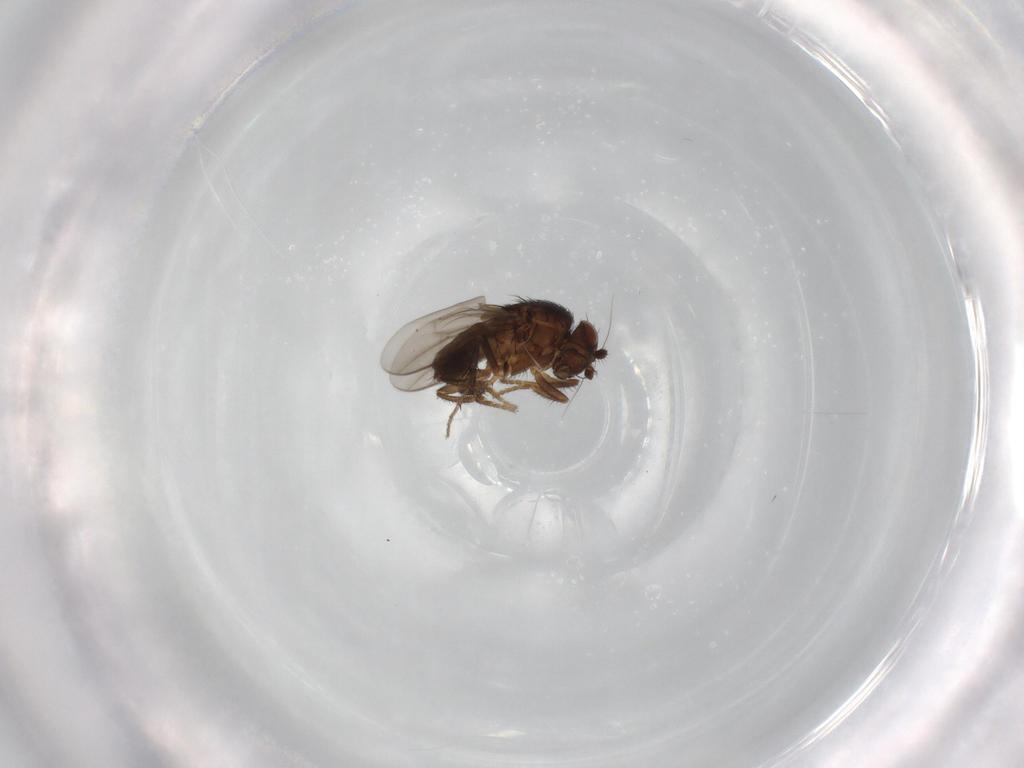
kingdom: Animalia
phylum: Arthropoda
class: Insecta
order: Diptera
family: Sphaeroceridae
